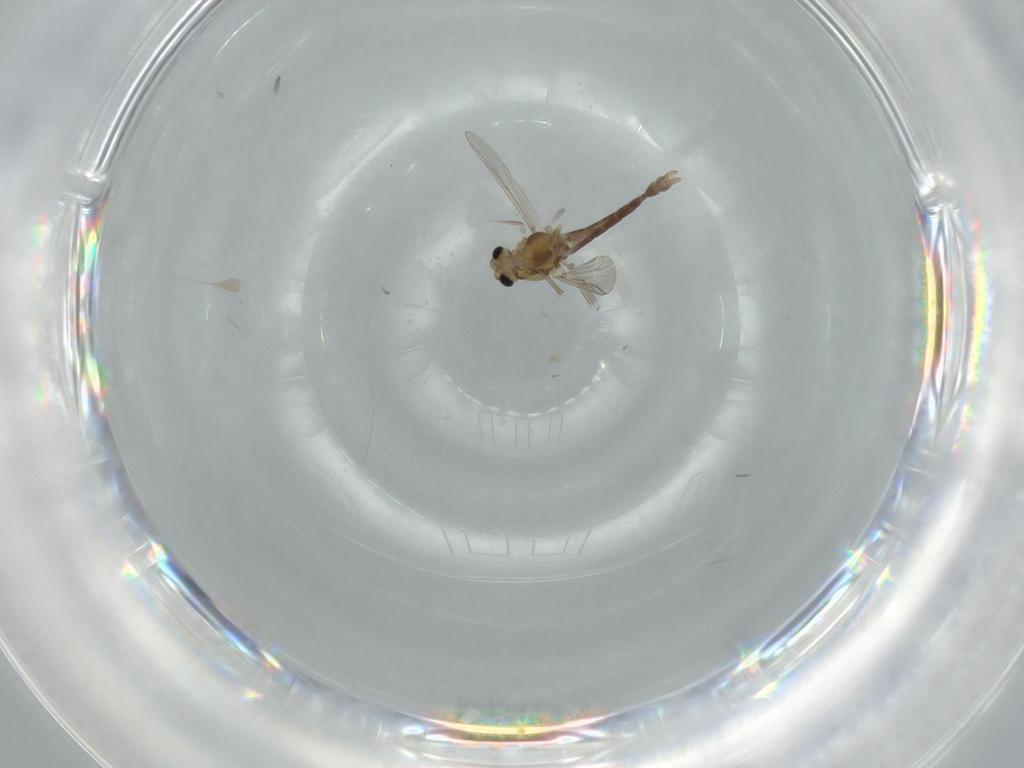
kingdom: Animalia
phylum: Arthropoda
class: Insecta
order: Diptera
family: Chironomidae
